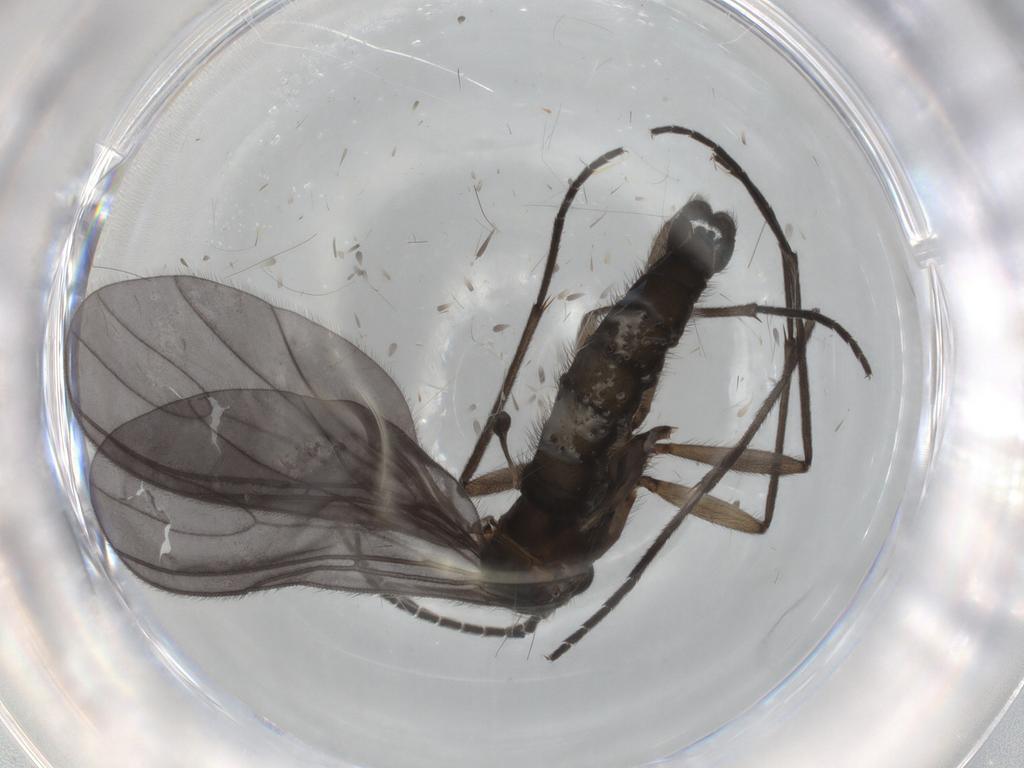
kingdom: Animalia
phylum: Arthropoda
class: Insecta
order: Diptera
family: Sciaridae
